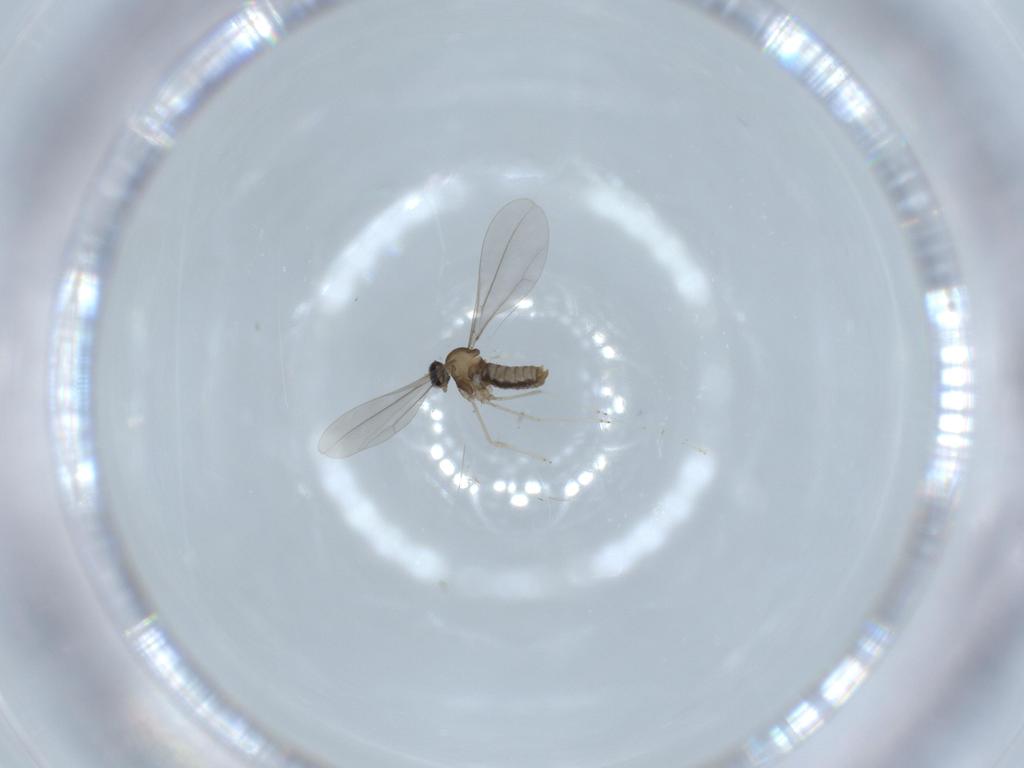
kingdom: Animalia
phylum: Arthropoda
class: Insecta
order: Diptera
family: Cecidomyiidae
